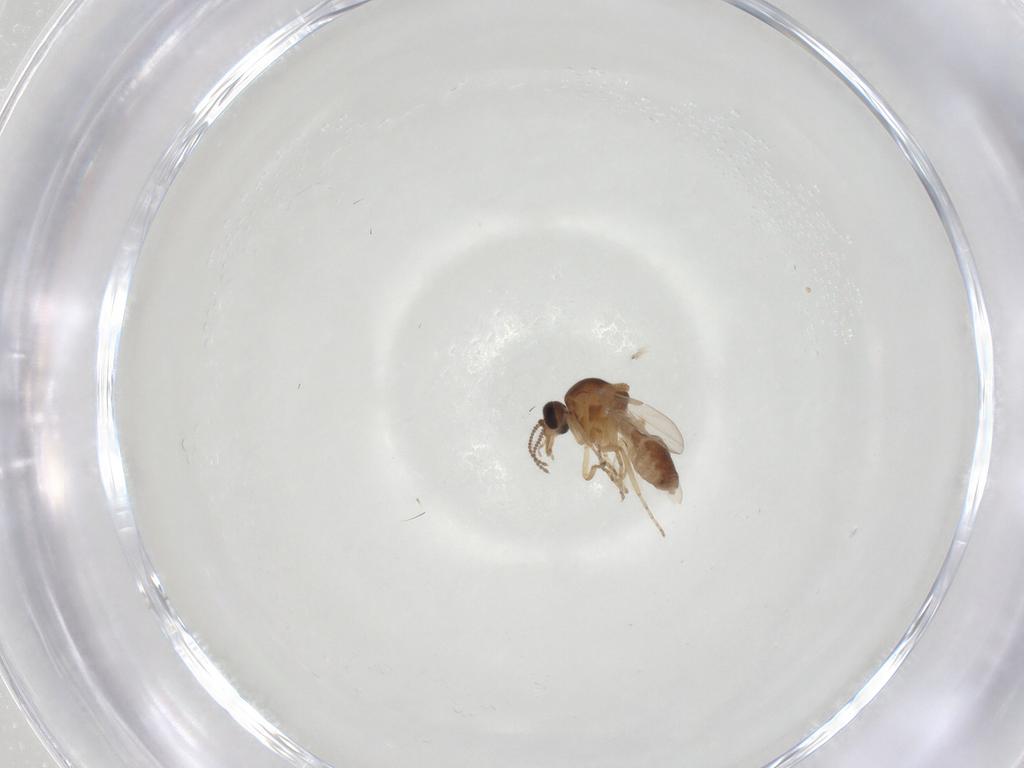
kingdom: Animalia
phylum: Arthropoda
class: Insecta
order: Diptera
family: Ceratopogonidae
